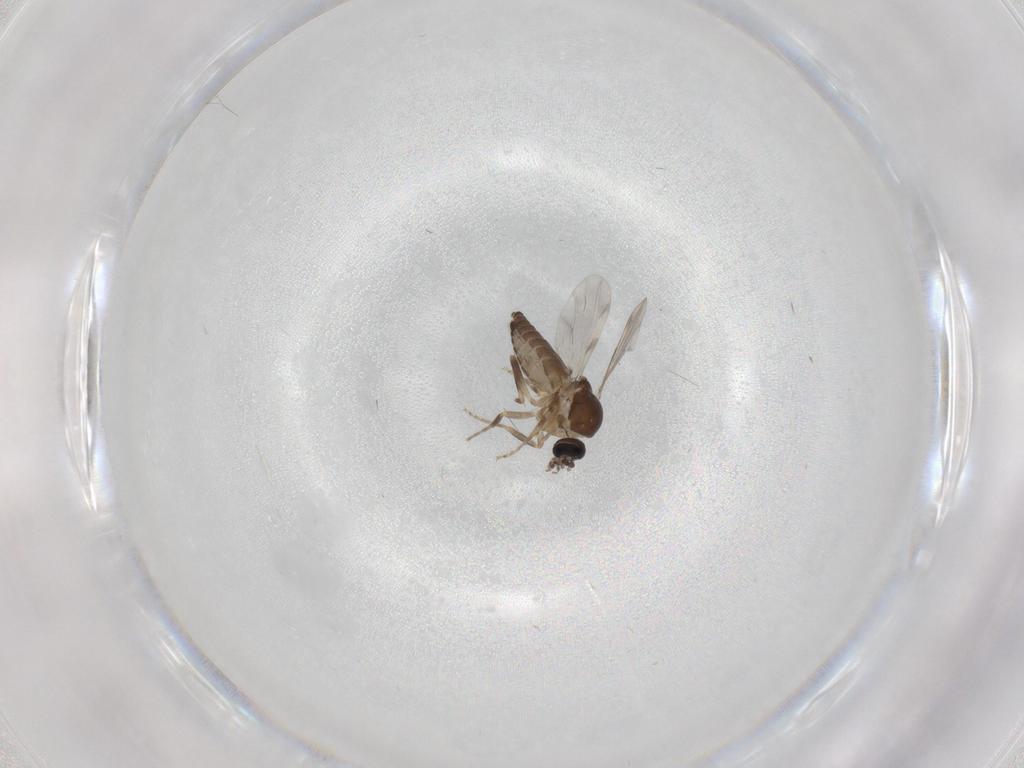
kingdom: Animalia
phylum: Arthropoda
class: Insecta
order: Diptera
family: Ceratopogonidae
